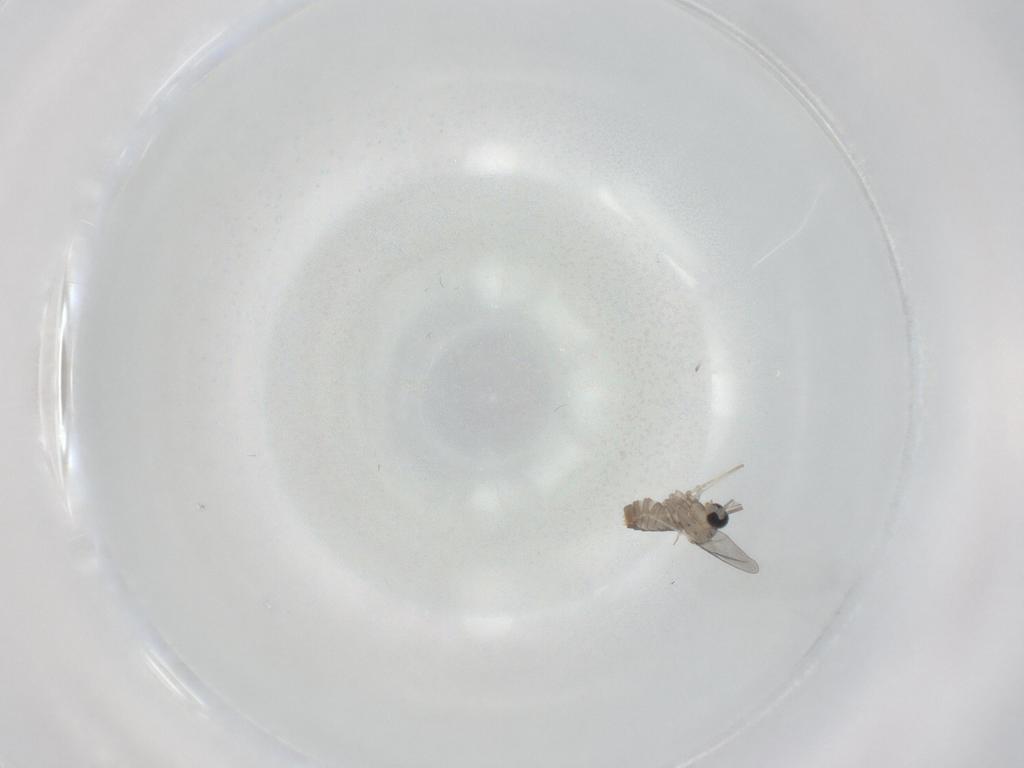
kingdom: Animalia
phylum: Arthropoda
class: Insecta
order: Diptera
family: Cecidomyiidae
